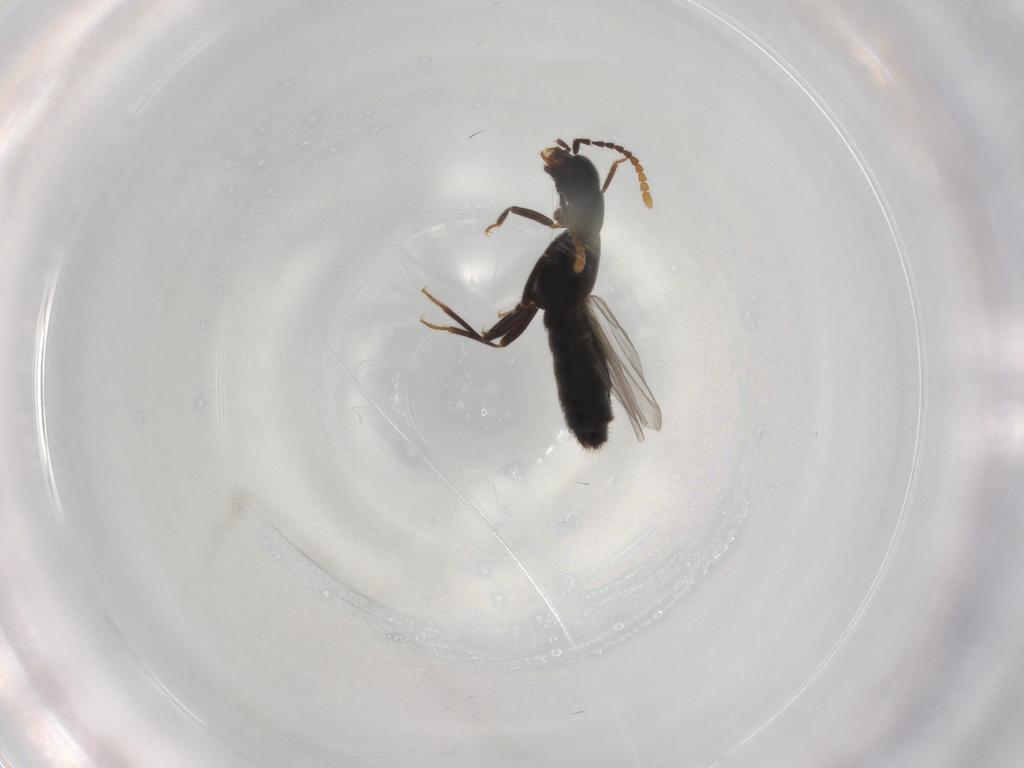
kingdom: Animalia
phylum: Arthropoda
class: Insecta
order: Coleoptera
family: Staphylinidae
